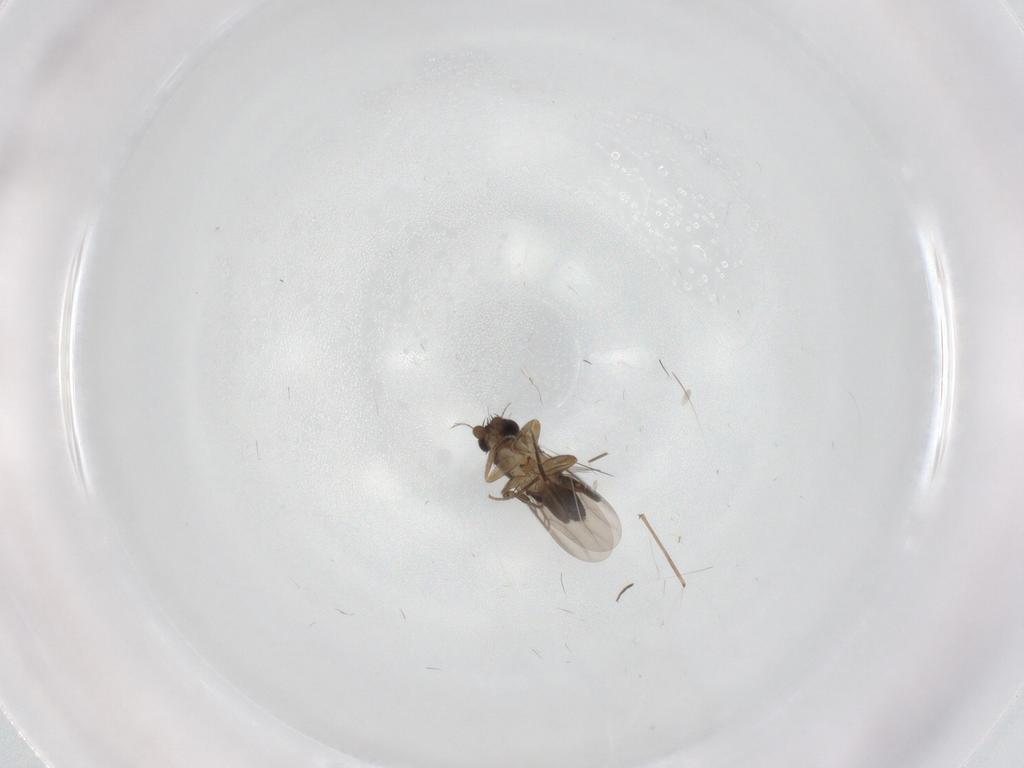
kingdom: Animalia
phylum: Arthropoda
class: Insecta
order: Diptera
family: Phoridae
